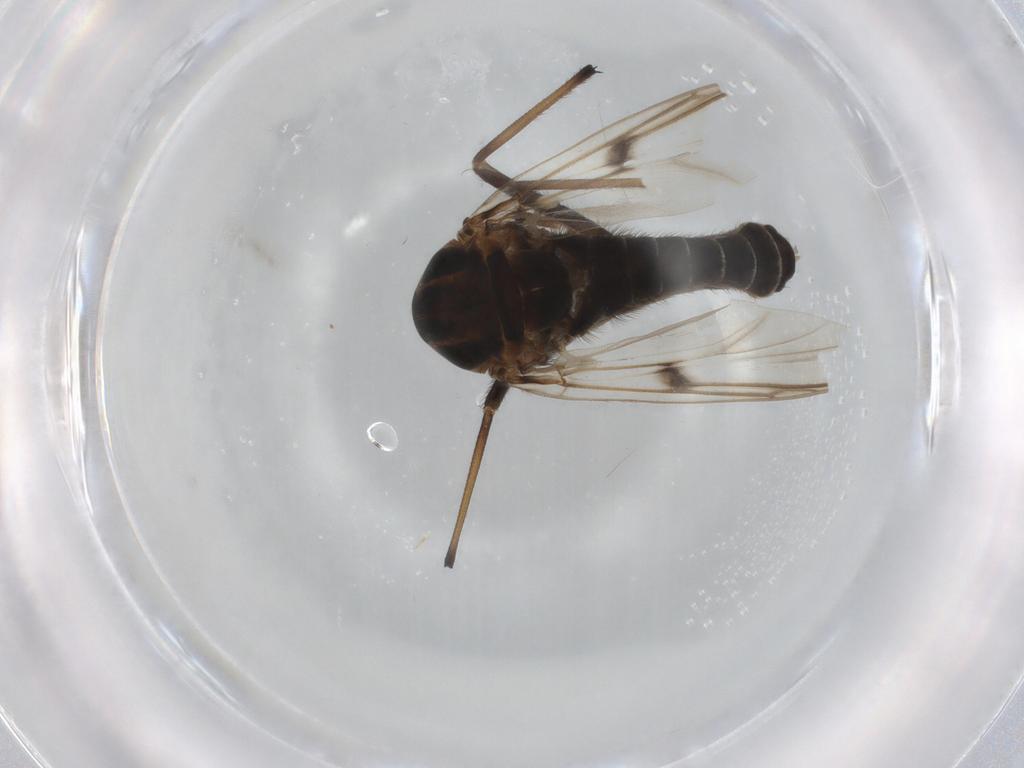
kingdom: Animalia
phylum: Arthropoda
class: Insecta
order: Diptera
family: Chironomidae
